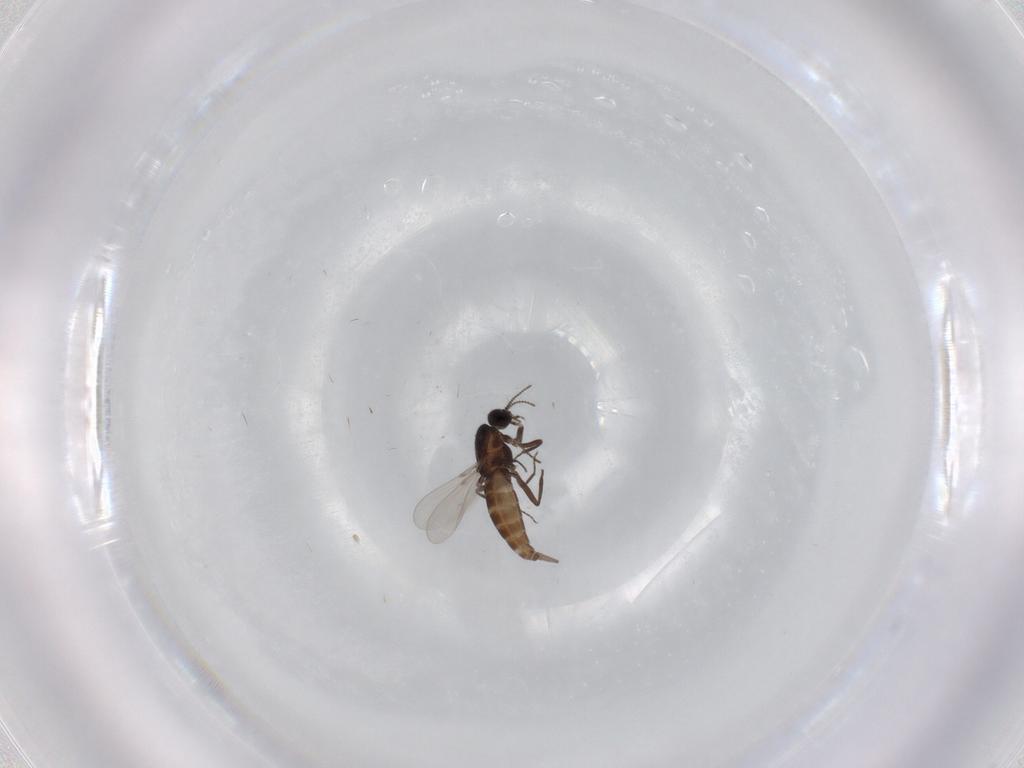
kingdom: Animalia
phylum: Arthropoda
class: Insecta
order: Diptera
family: Ceratopogonidae
